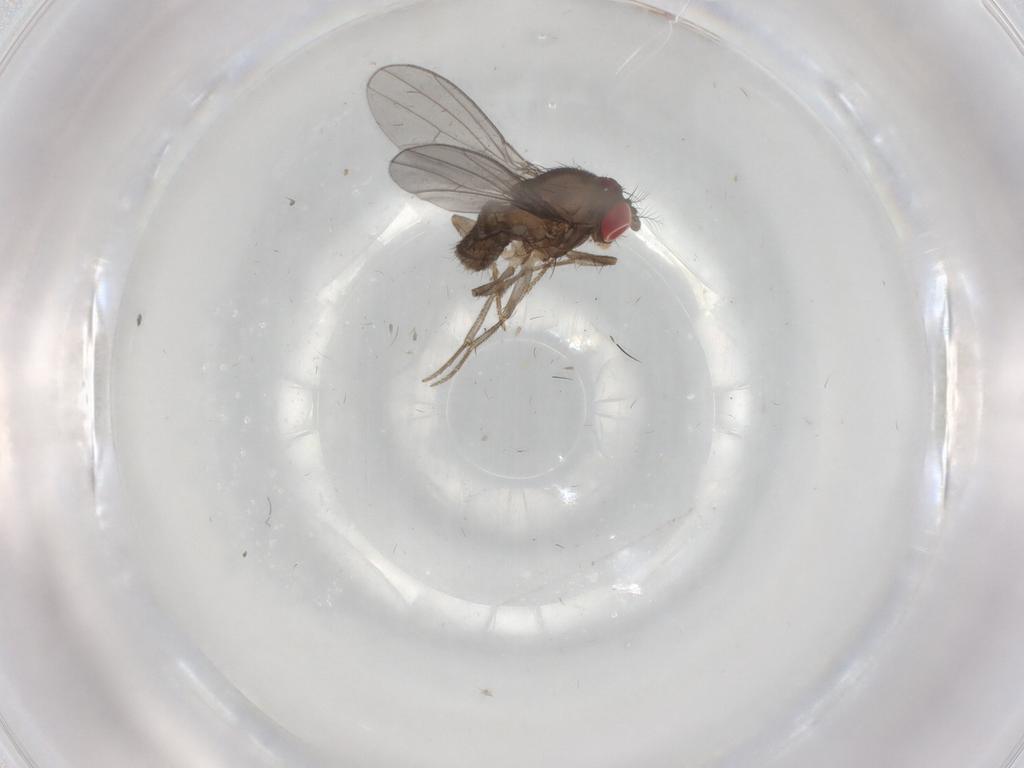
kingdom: Animalia
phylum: Arthropoda
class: Insecta
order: Diptera
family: Drosophilidae
